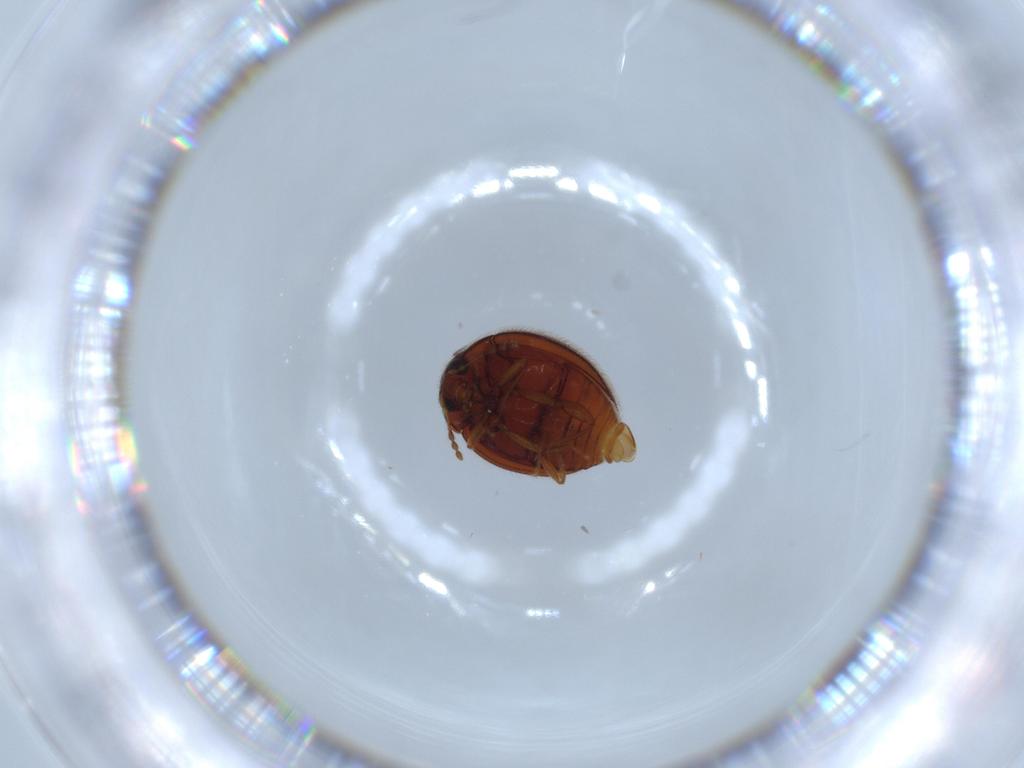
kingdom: Animalia
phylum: Arthropoda
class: Insecta
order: Coleoptera
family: Anamorphidae
